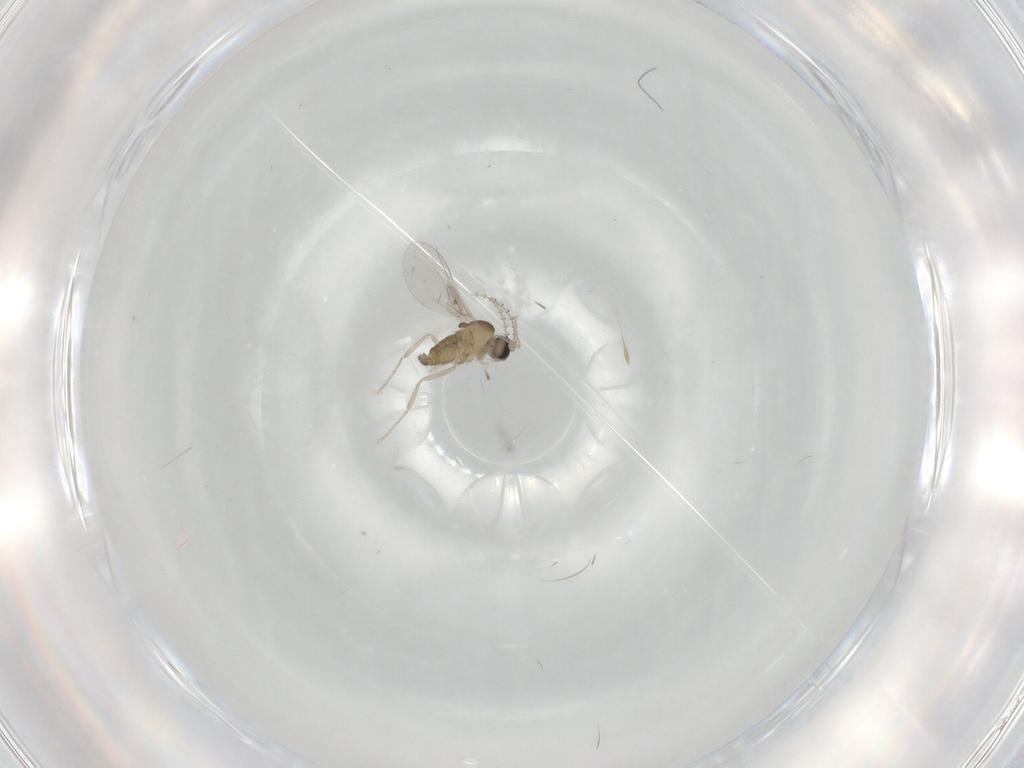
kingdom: Animalia
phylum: Arthropoda
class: Insecta
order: Diptera
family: Cecidomyiidae
